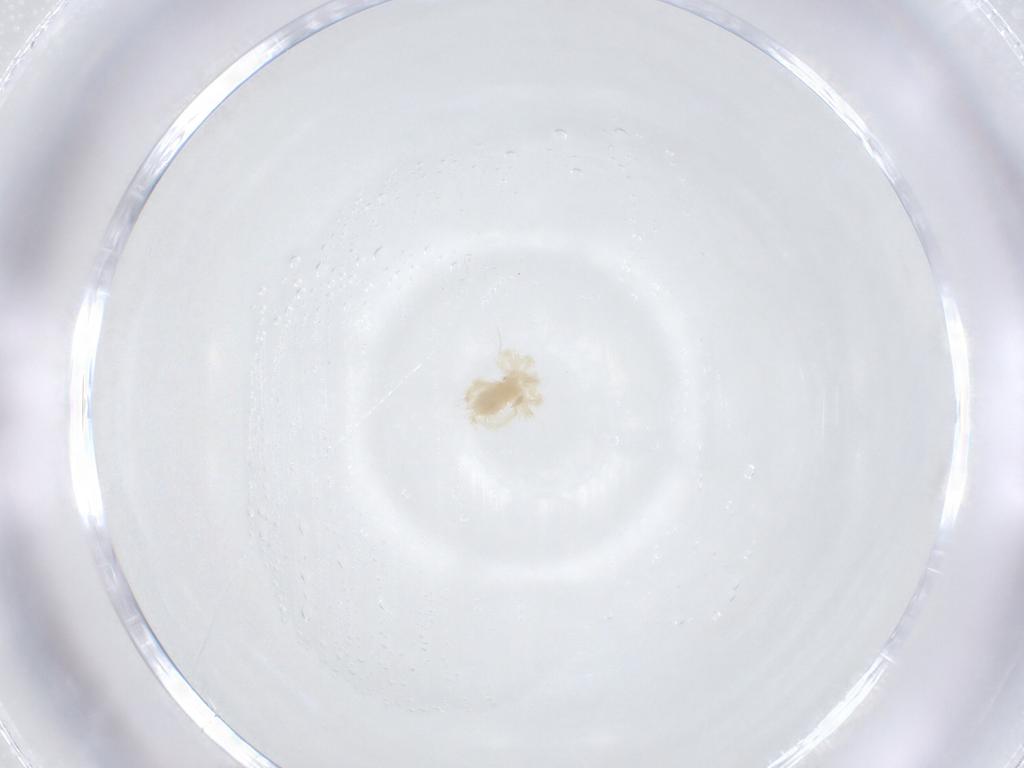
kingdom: Animalia
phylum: Arthropoda
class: Arachnida
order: Trombidiformes
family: Anystidae
